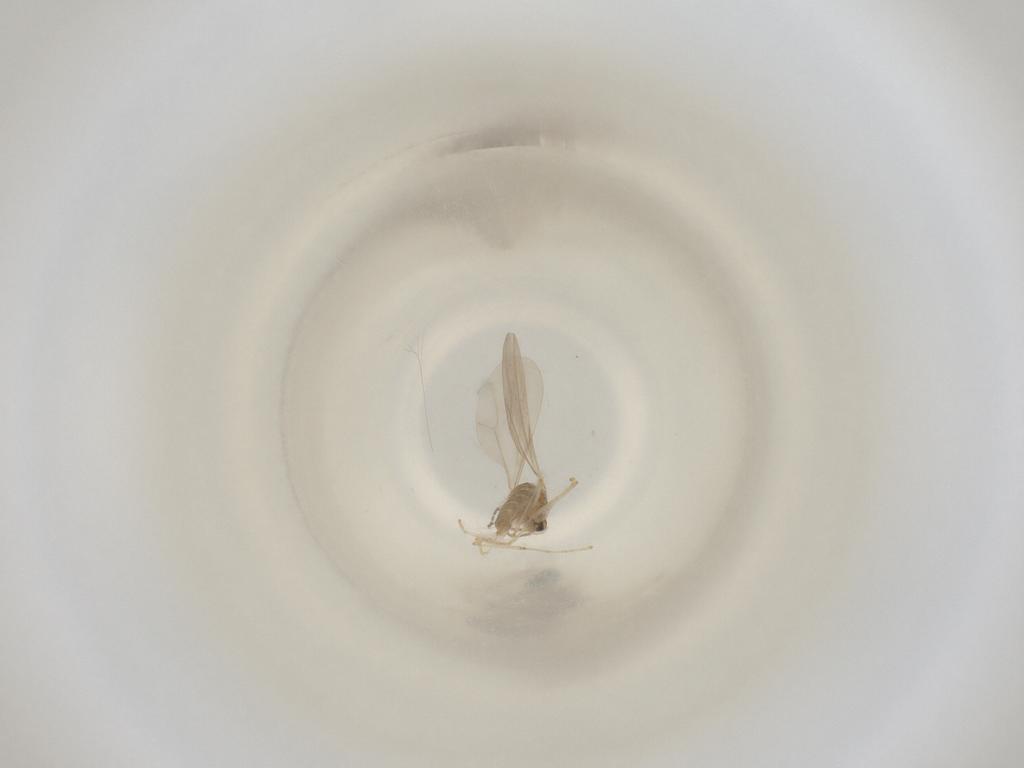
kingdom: Animalia
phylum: Arthropoda
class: Insecta
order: Diptera
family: Cecidomyiidae
